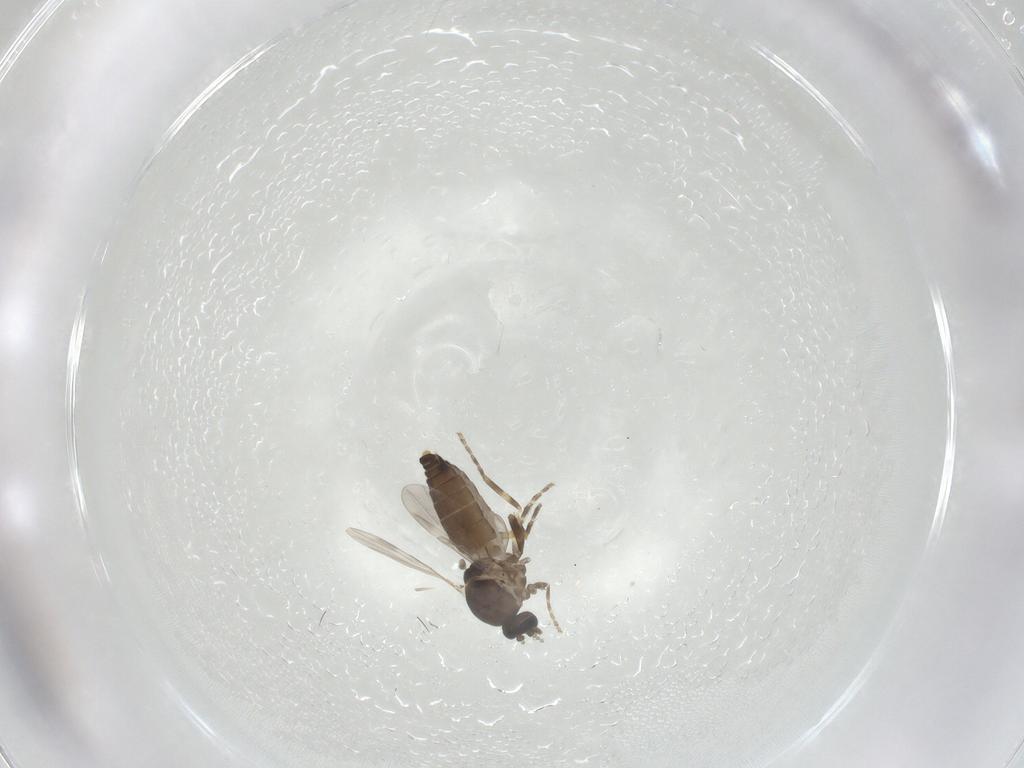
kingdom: Animalia
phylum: Arthropoda
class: Insecta
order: Diptera
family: Ceratopogonidae
